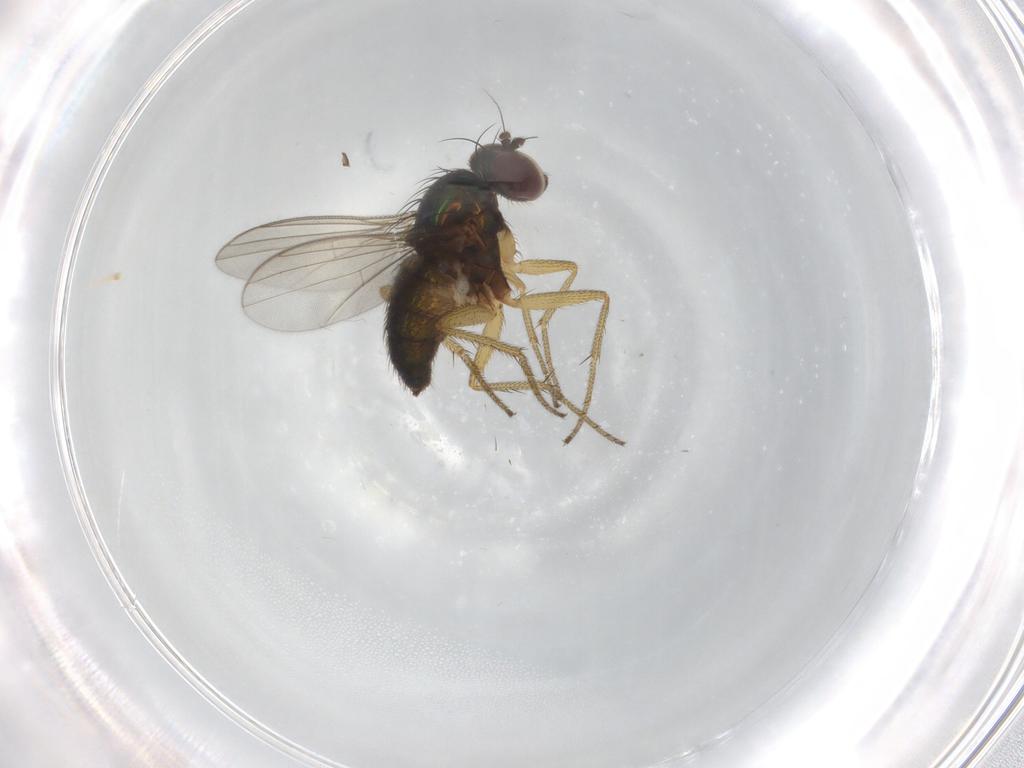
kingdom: Animalia
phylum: Arthropoda
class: Insecta
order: Diptera
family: Dolichopodidae
